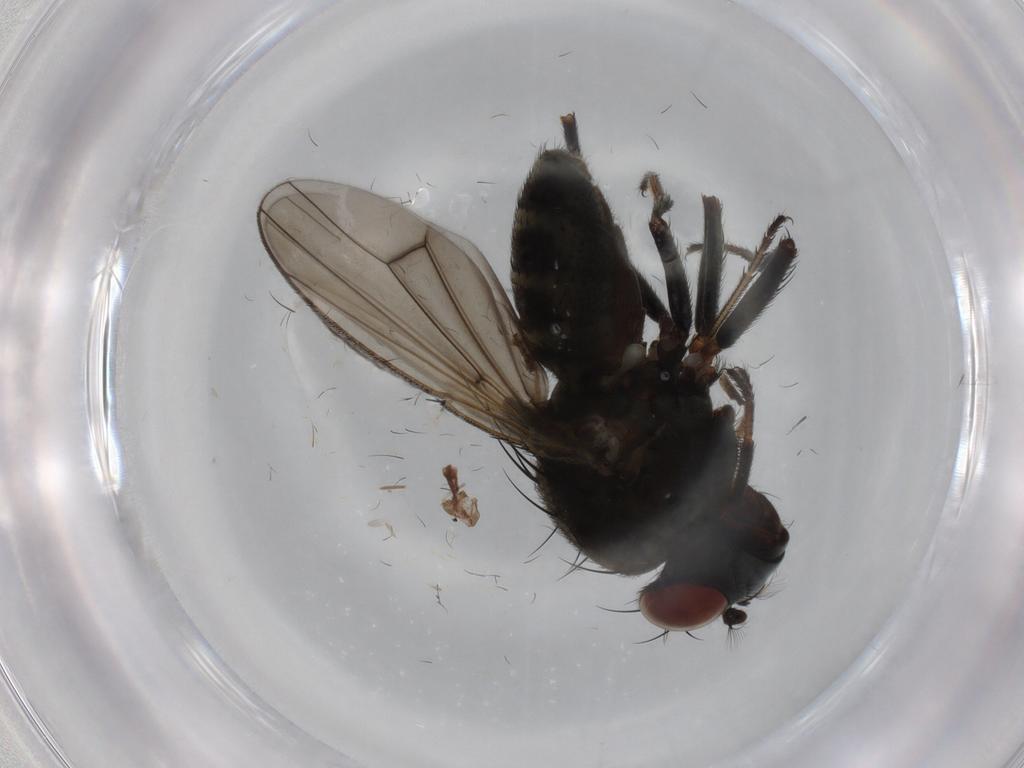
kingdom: Animalia
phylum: Arthropoda
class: Insecta
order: Diptera
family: Ephydridae
